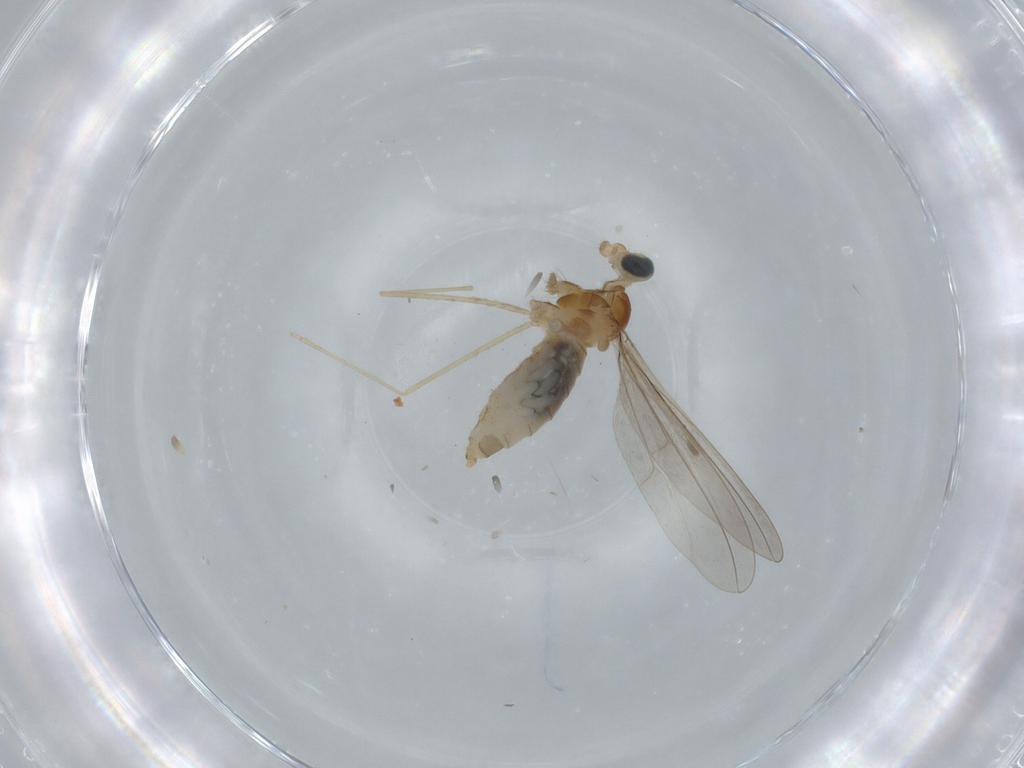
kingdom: Animalia
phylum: Arthropoda
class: Insecta
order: Diptera
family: Cecidomyiidae
